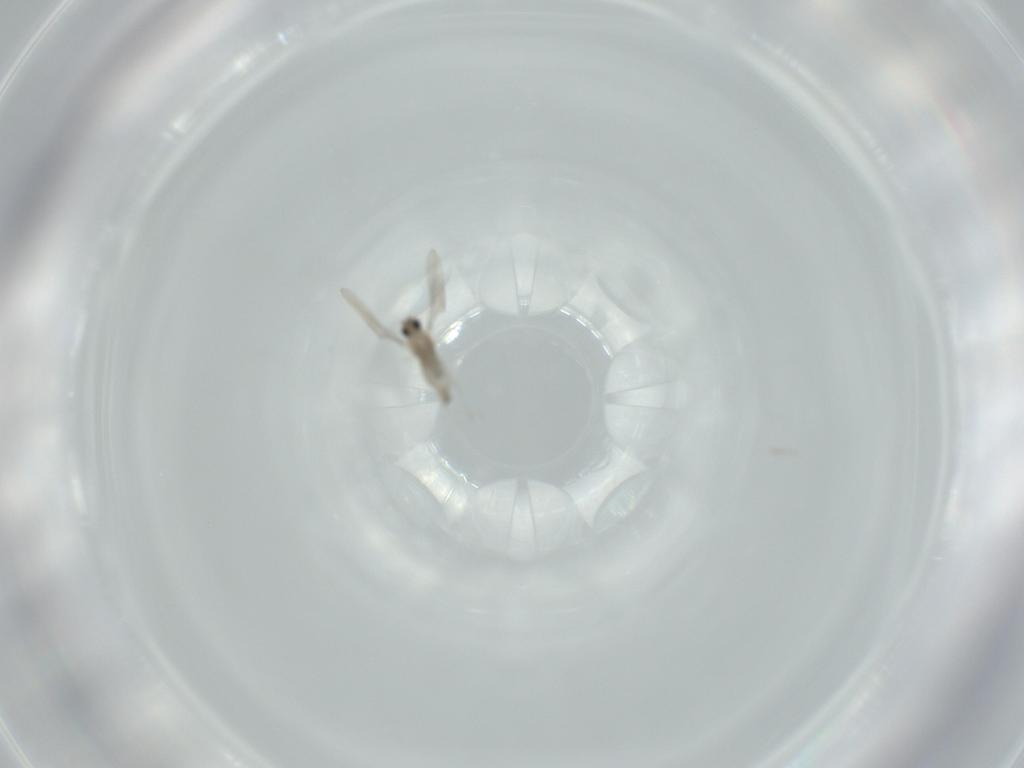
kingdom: Animalia
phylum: Arthropoda
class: Insecta
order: Diptera
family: Cecidomyiidae
